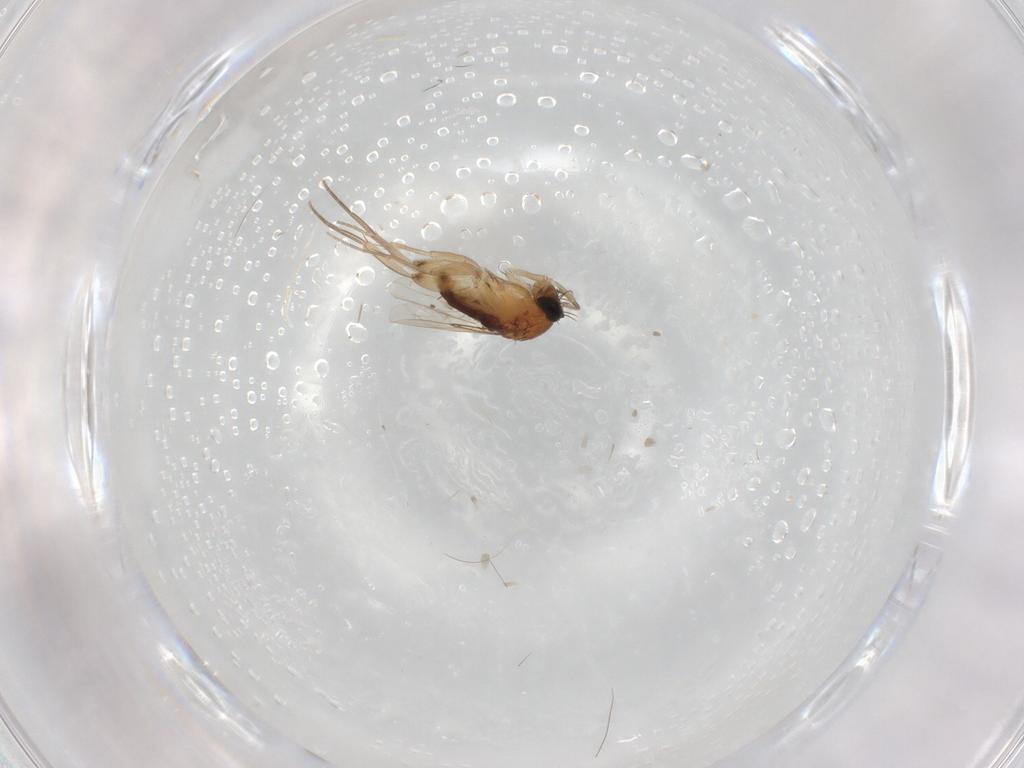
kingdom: Animalia
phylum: Arthropoda
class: Insecta
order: Diptera
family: Phoridae
